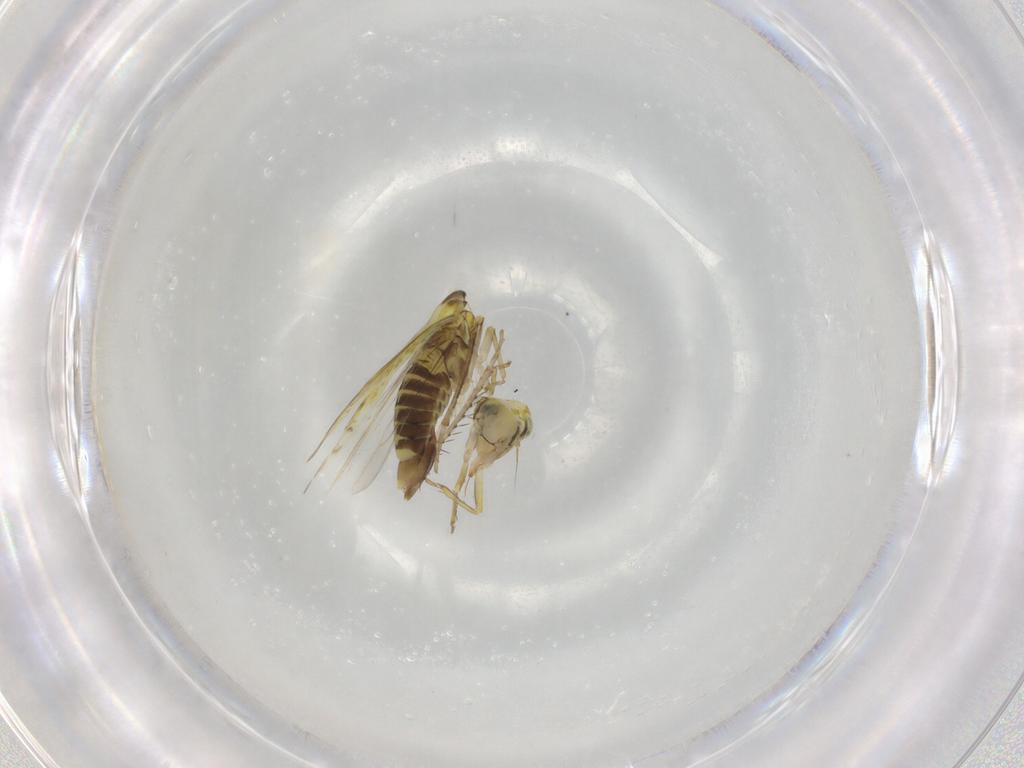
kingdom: Animalia
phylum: Arthropoda
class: Insecta
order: Hemiptera
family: Cicadellidae
